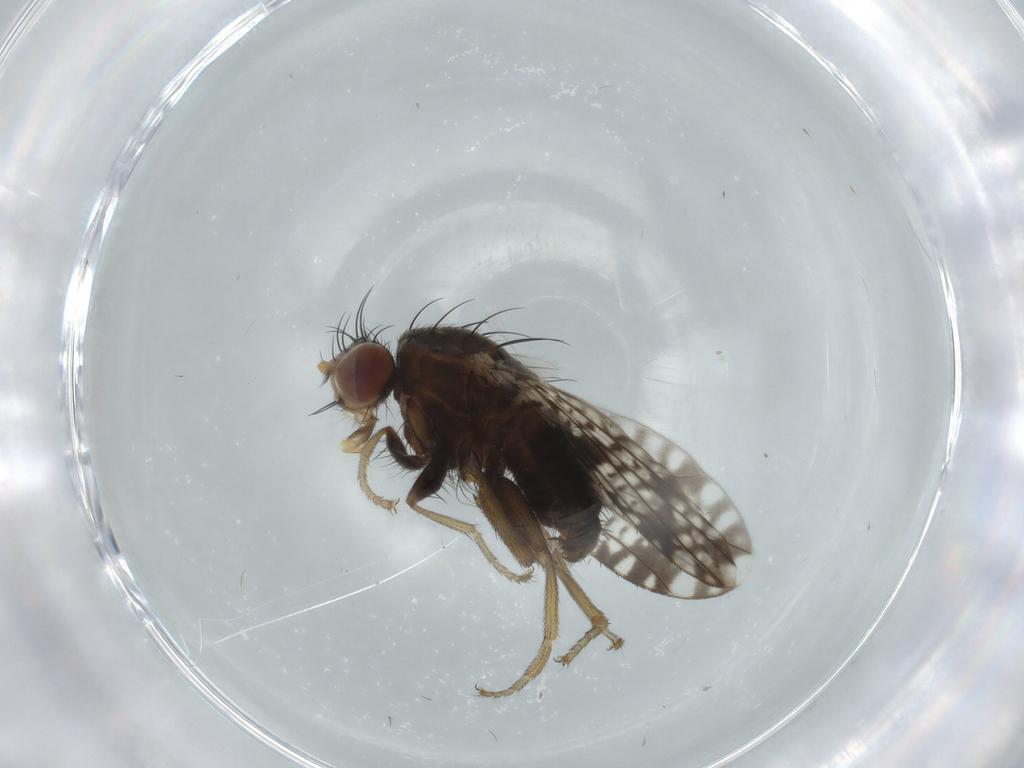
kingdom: Animalia
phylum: Arthropoda
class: Insecta
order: Diptera
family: Tephritidae
